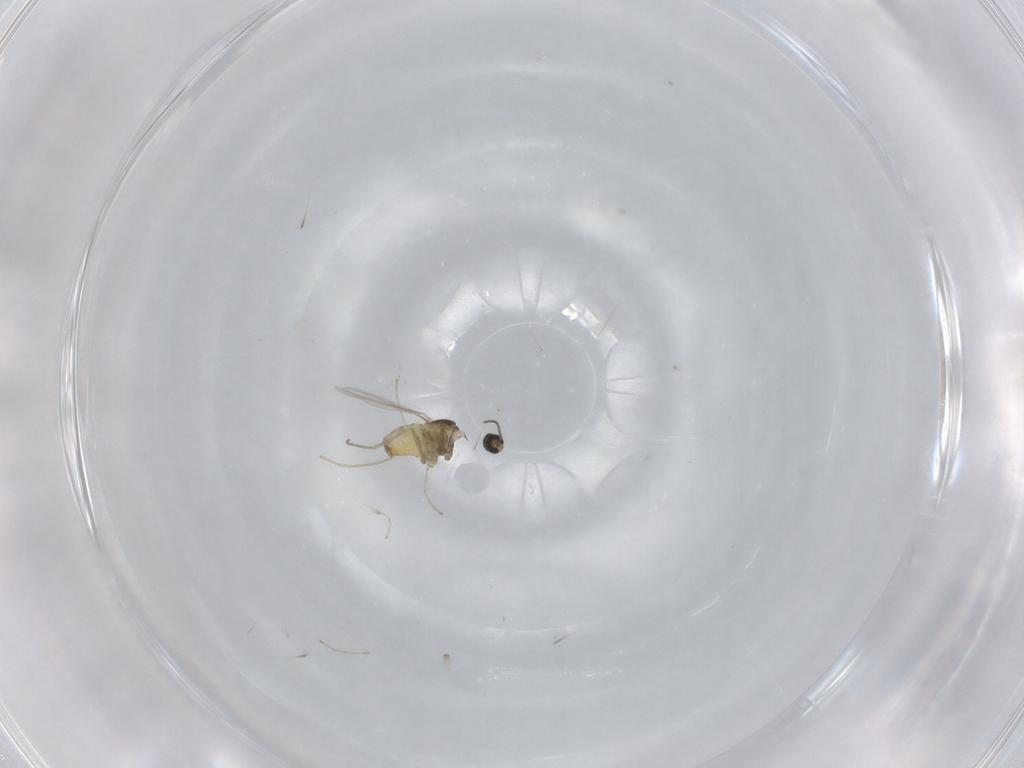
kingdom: Animalia
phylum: Arthropoda
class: Insecta
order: Diptera
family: Cecidomyiidae
